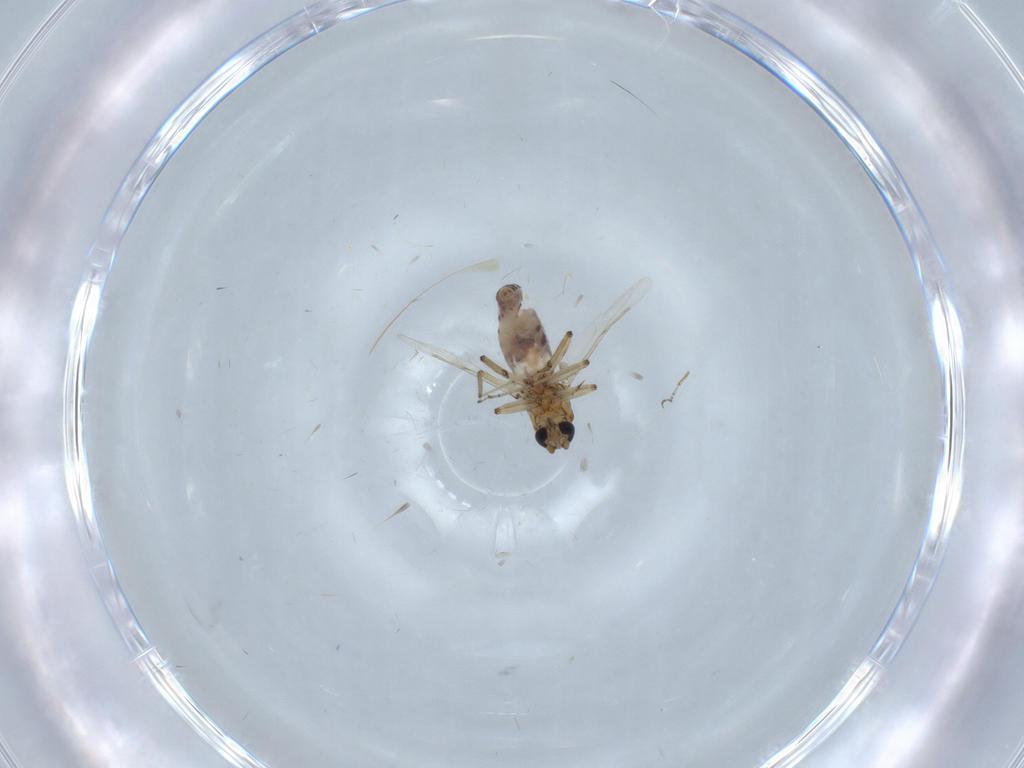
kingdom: Animalia
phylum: Arthropoda
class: Insecta
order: Diptera
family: Ceratopogonidae
